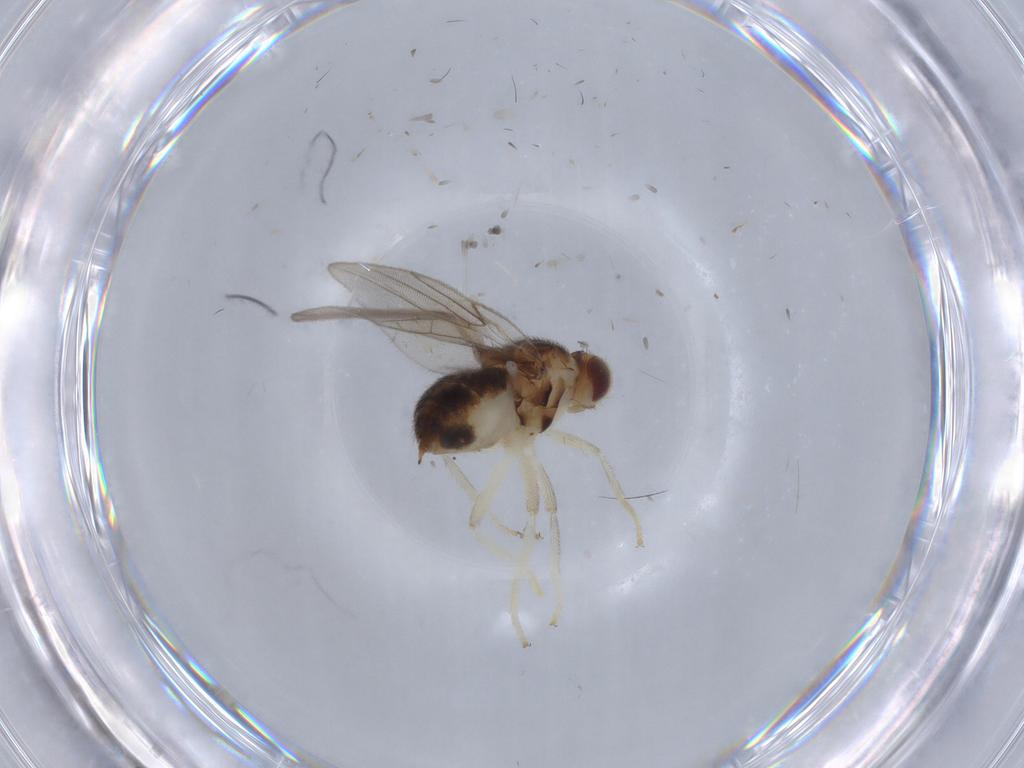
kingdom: Animalia
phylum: Arthropoda
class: Insecta
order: Diptera
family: Chloropidae
